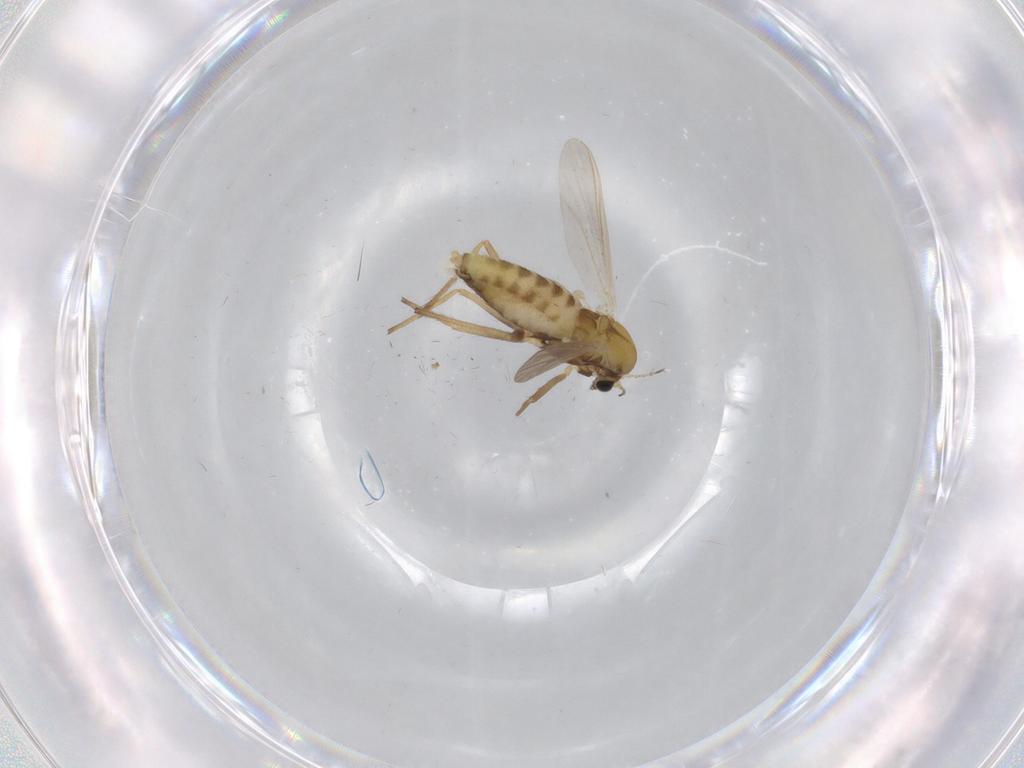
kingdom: Animalia
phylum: Arthropoda
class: Insecta
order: Diptera
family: Chironomidae
